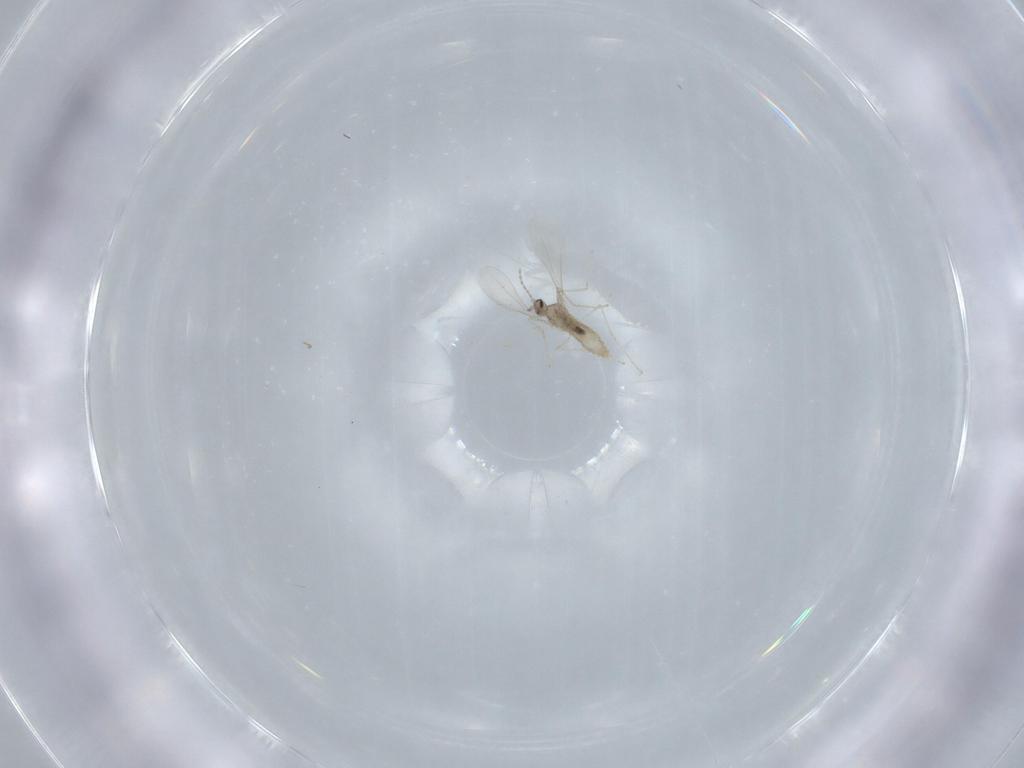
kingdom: Animalia
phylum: Arthropoda
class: Insecta
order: Diptera
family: Cecidomyiidae
